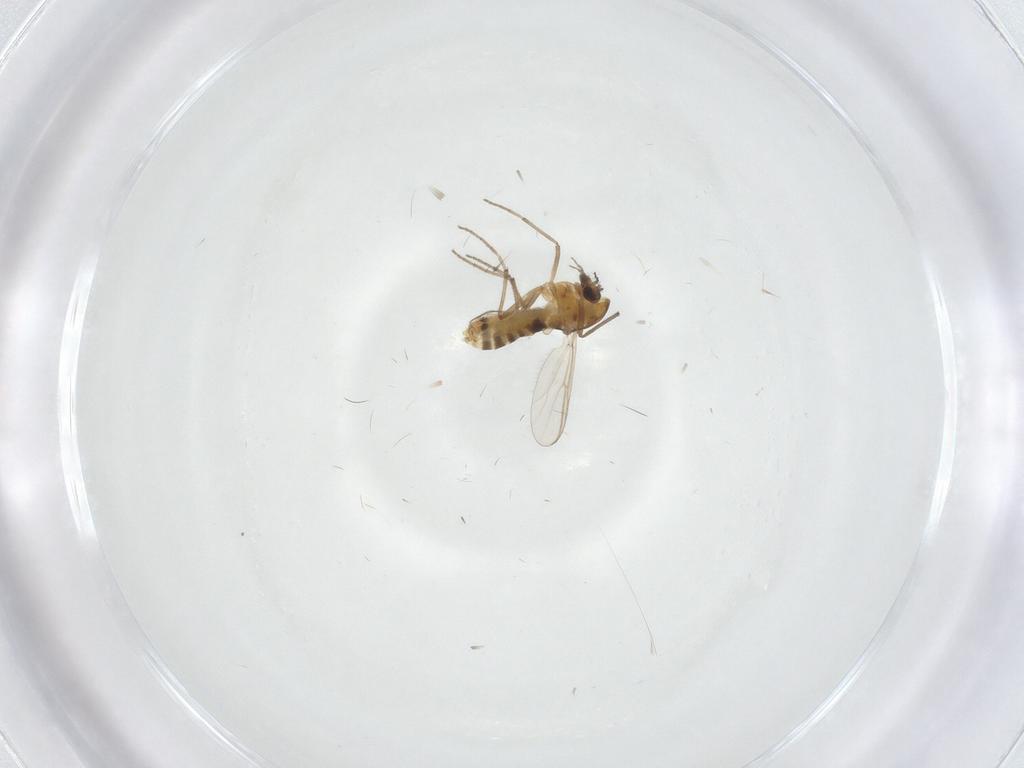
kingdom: Animalia
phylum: Arthropoda
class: Insecta
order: Diptera
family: Chironomidae
